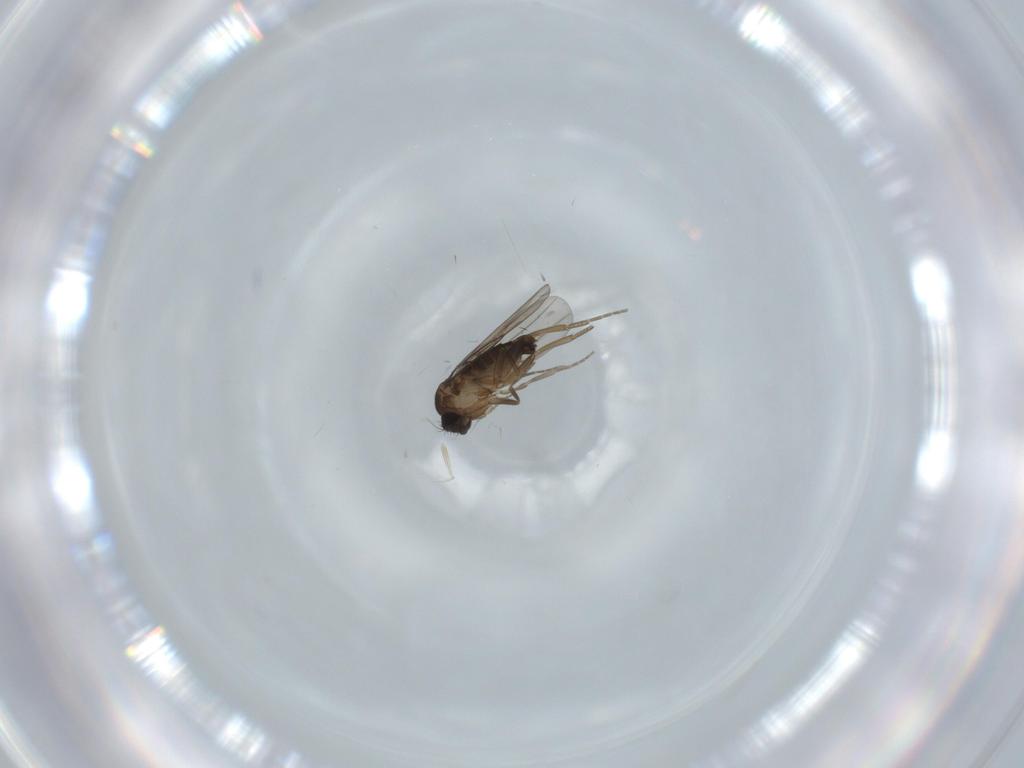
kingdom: Animalia
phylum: Arthropoda
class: Insecta
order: Diptera
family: Phoridae
